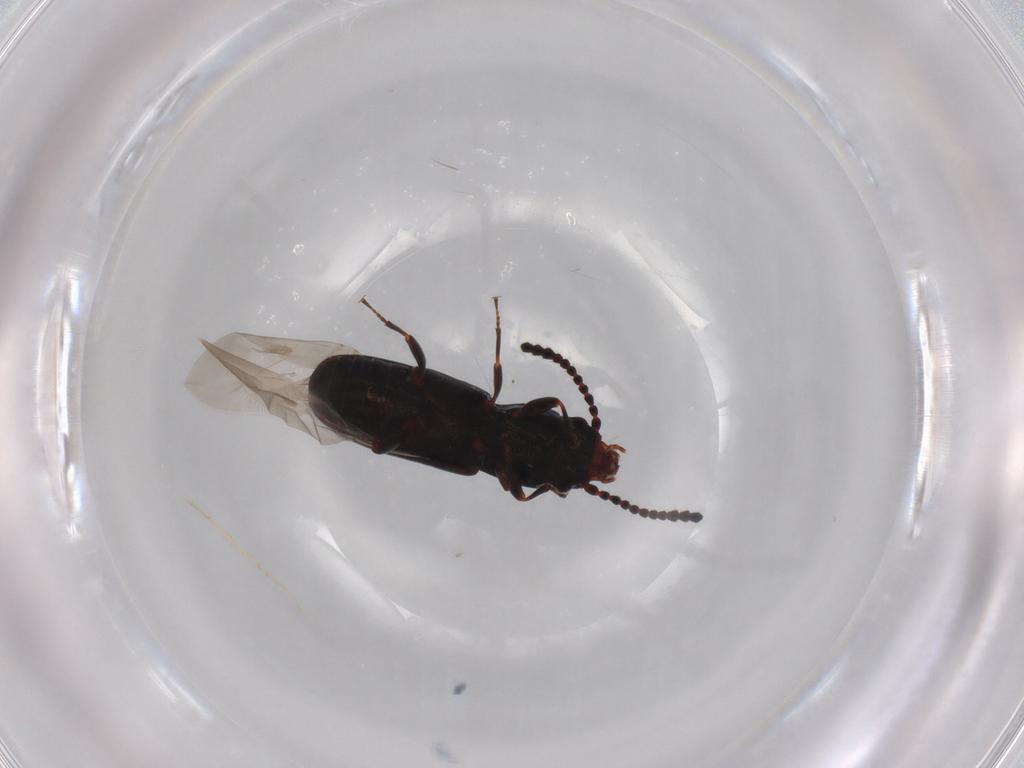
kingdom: Animalia
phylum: Arthropoda
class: Insecta
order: Coleoptera
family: Laemophloeidae
